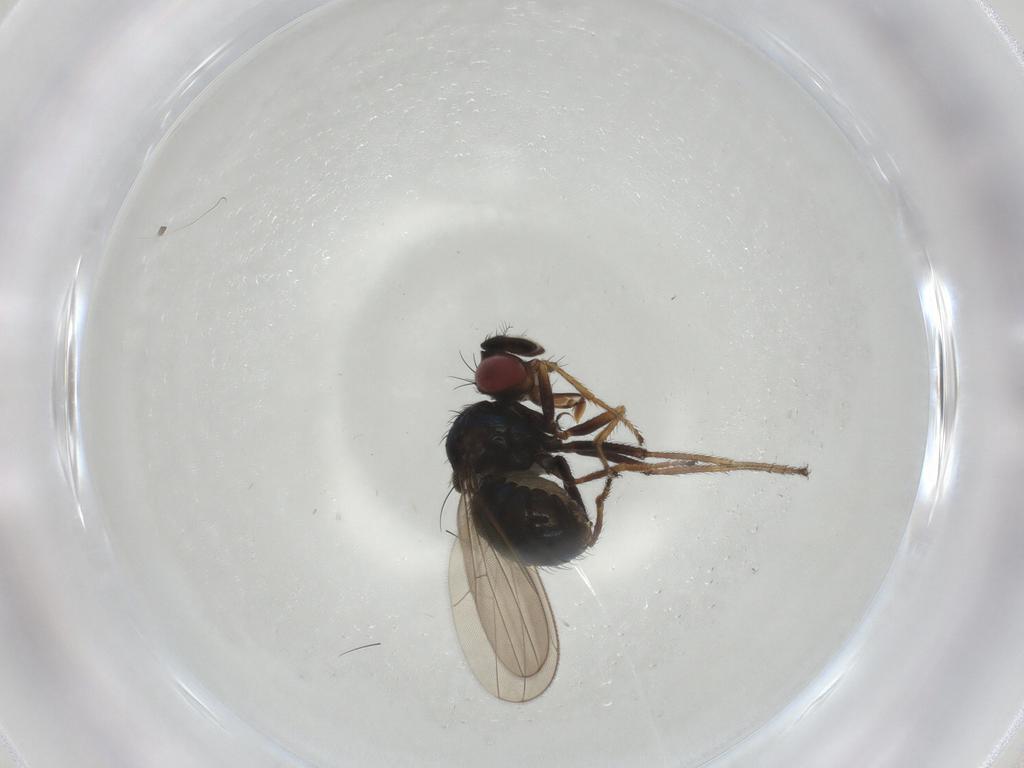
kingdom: Animalia
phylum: Arthropoda
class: Insecta
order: Diptera
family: Ephydridae
